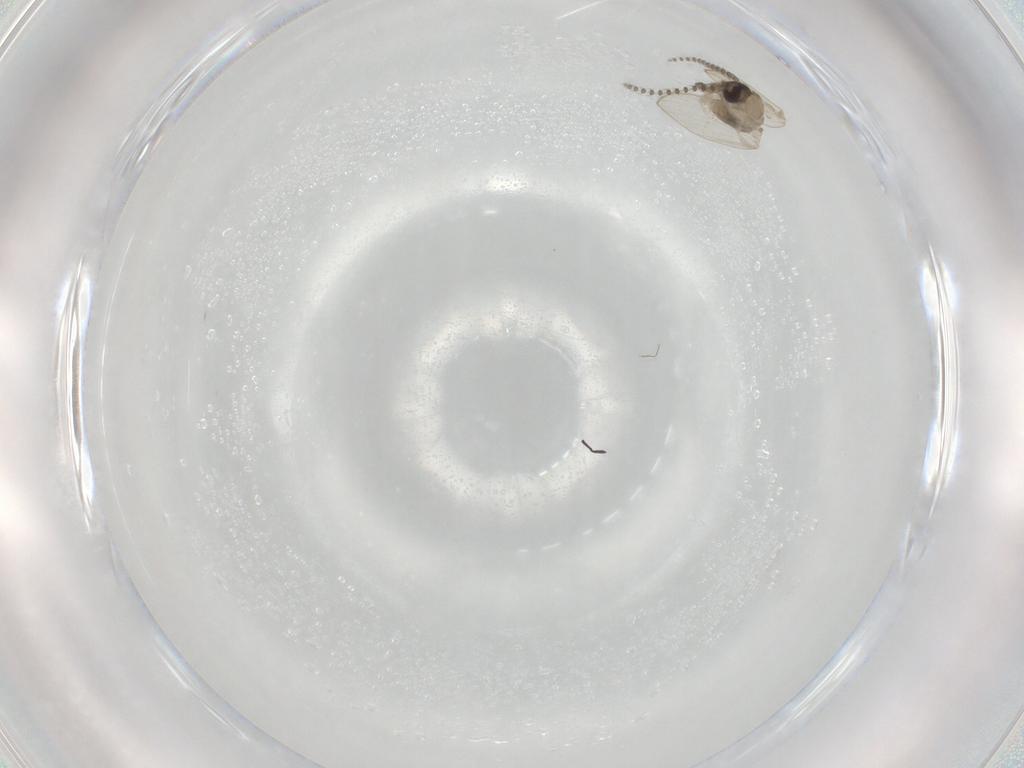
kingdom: Animalia
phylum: Arthropoda
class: Insecta
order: Diptera
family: Psychodidae
